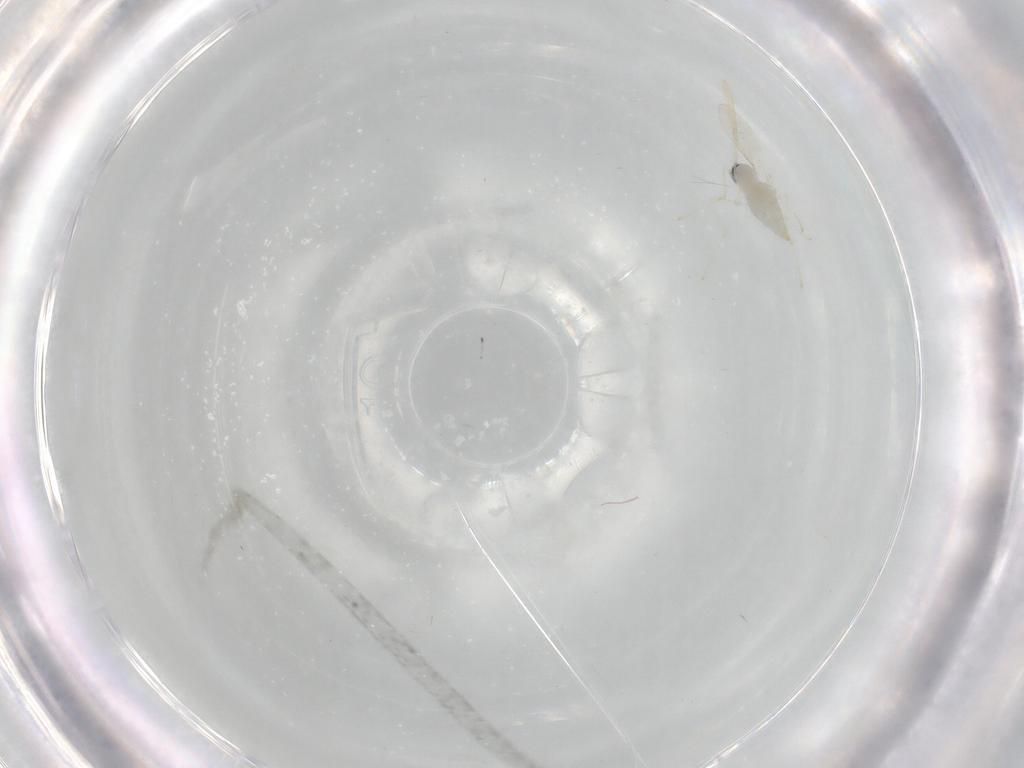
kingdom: Animalia
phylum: Arthropoda
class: Insecta
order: Diptera
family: Cecidomyiidae
